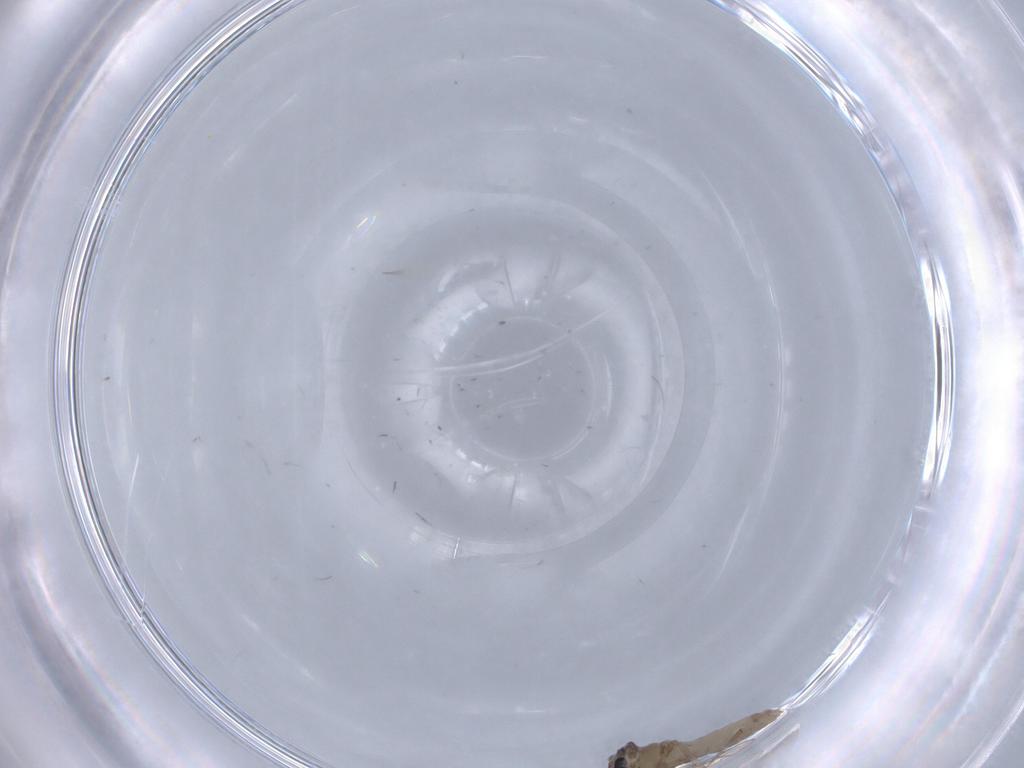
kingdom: Animalia
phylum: Arthropoda
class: Insecta
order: Diptera
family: Chironomidae
